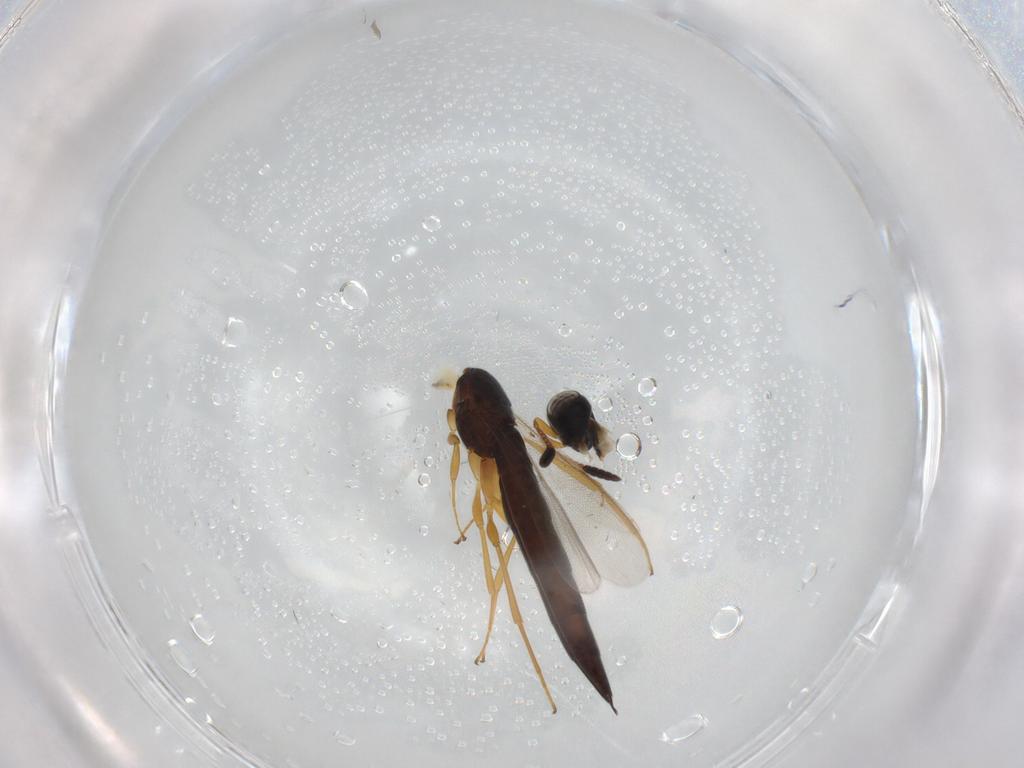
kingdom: Animalia
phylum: Arthropoda
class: Insecta
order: Hymenoptera
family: Scelionidae
